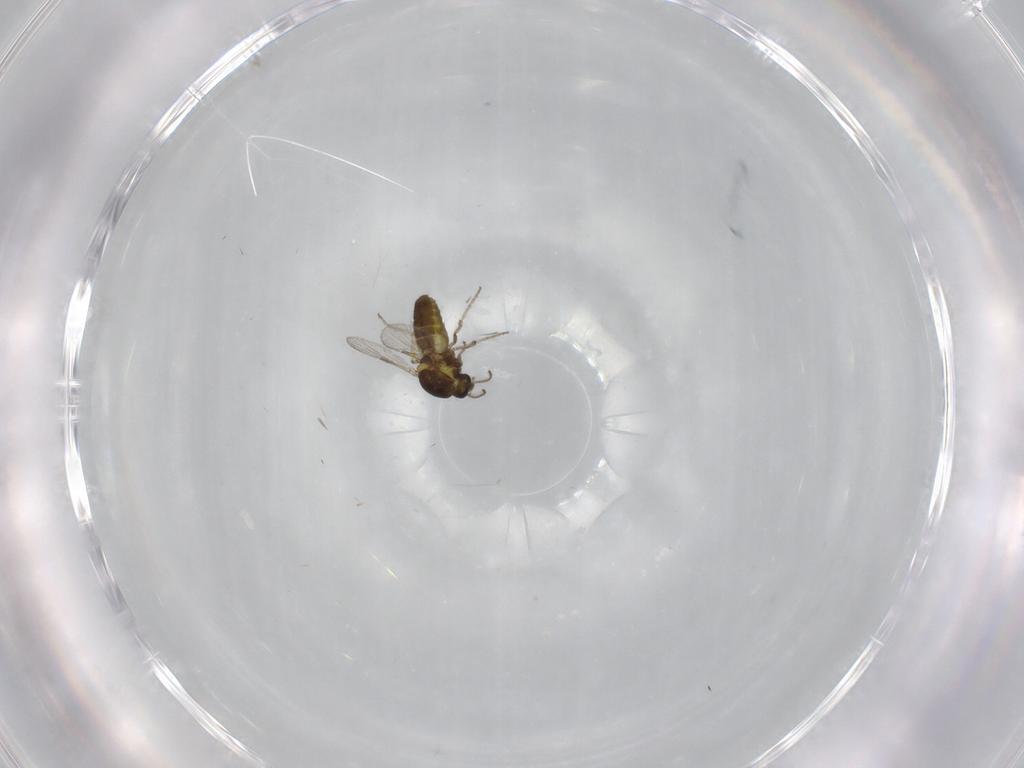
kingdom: Animalia
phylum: Arthropoda
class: Insecta
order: Diptera
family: Ceratopogonidae
